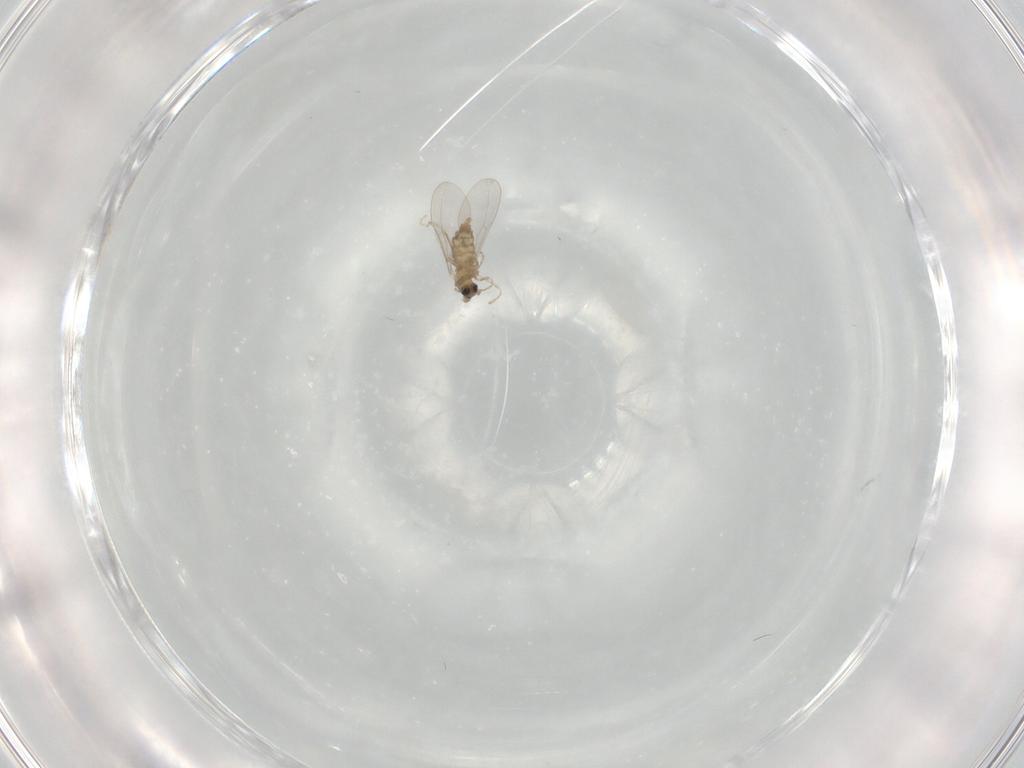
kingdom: Animalia
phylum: Arthropoda
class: Insecta
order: Diptera
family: Cecidomyiidae
